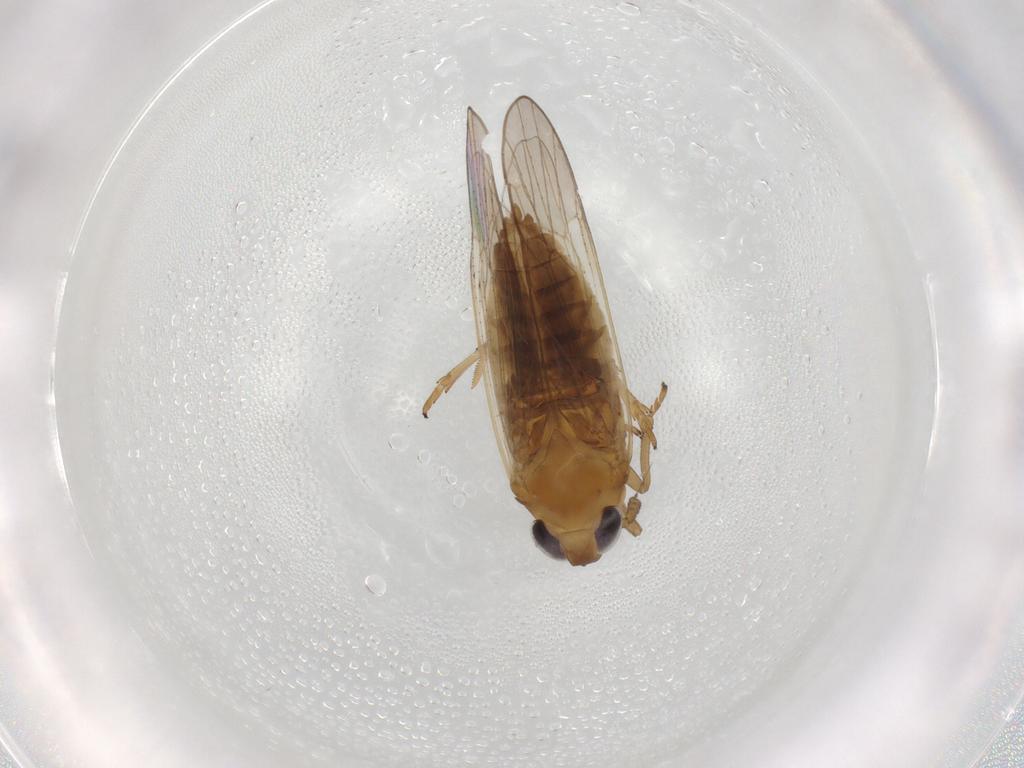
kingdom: Animalia
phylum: Arthropoda
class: Insecta
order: Hemiptera
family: Delphacidae
